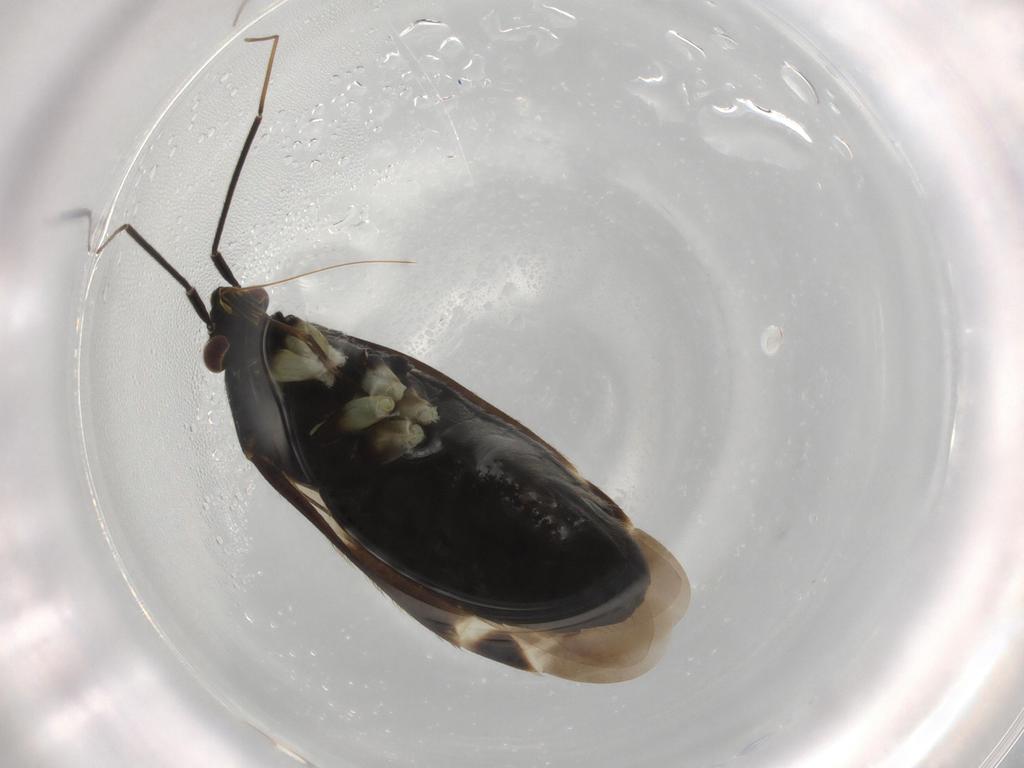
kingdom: Animalia
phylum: Arthropoda
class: Insecta
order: Hemiptera
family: Miridae
